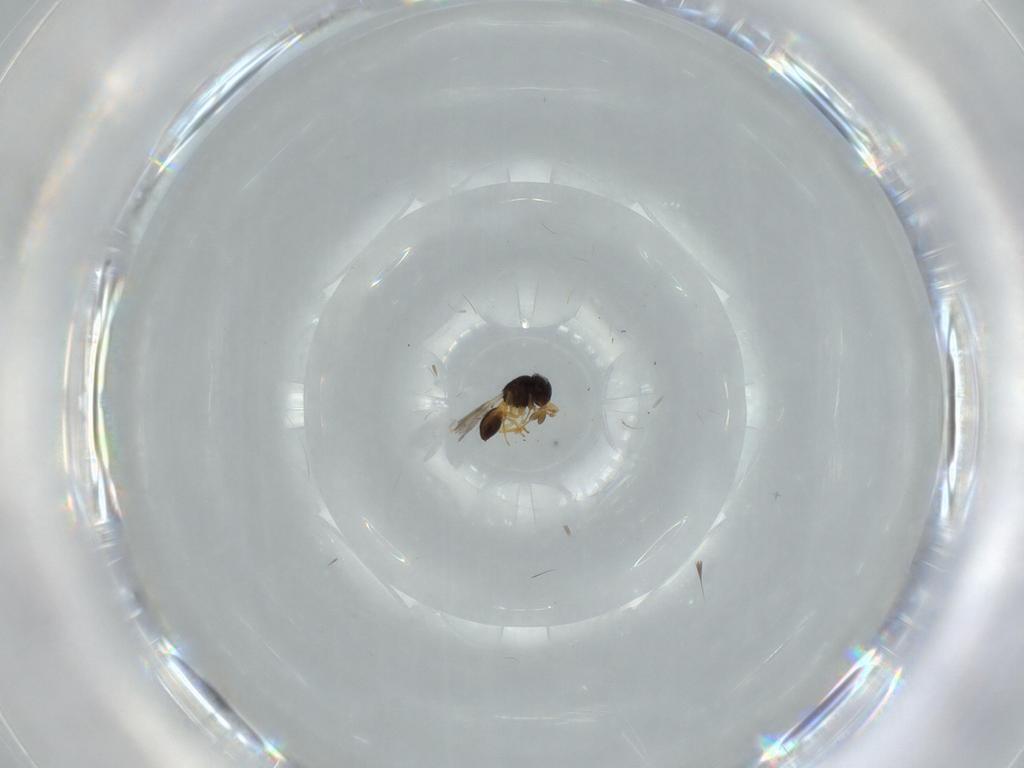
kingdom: Animalia
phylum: Arthropoda
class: Insecta
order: Hymenoptera
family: Scelionidae
